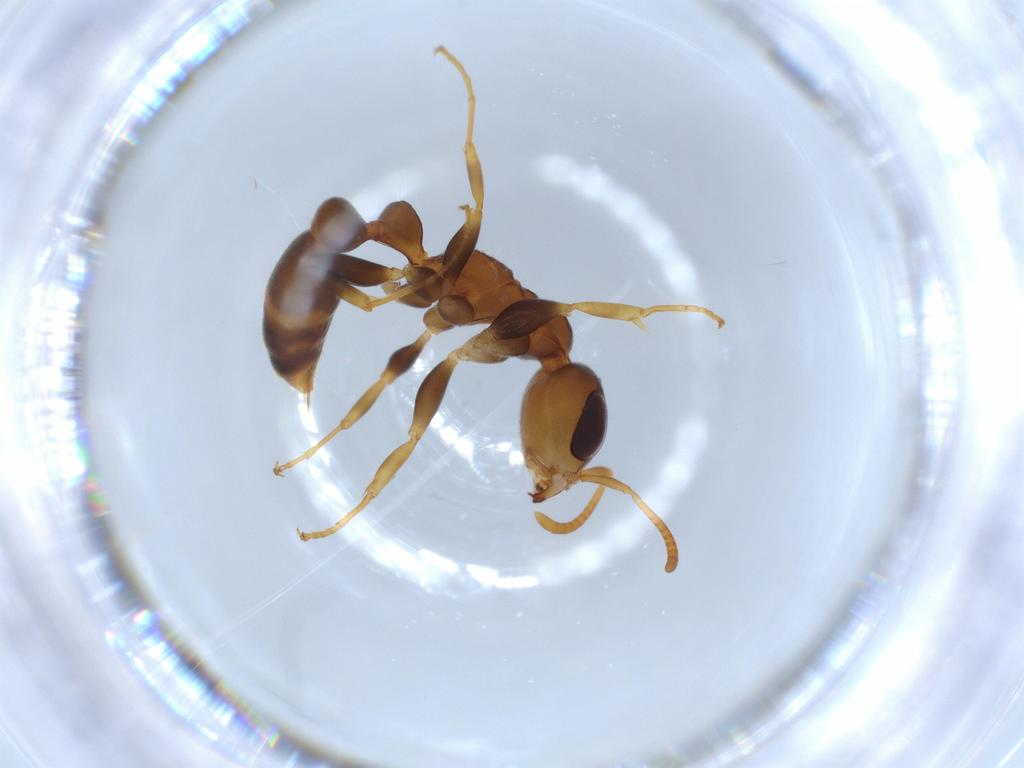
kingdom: Animalia
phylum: Arthropoda
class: Insecta
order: Hymenoptera
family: Formicidae
